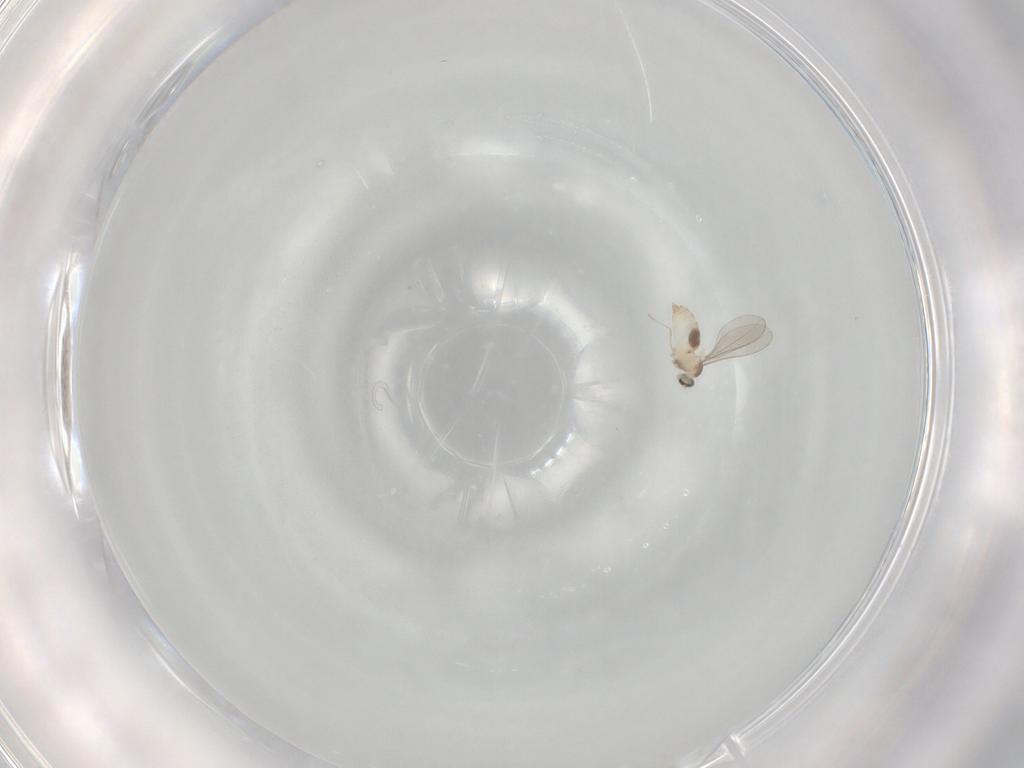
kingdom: Animalia
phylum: Arthropoda
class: Insecta
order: Diptera
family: Cecidomyiidae
